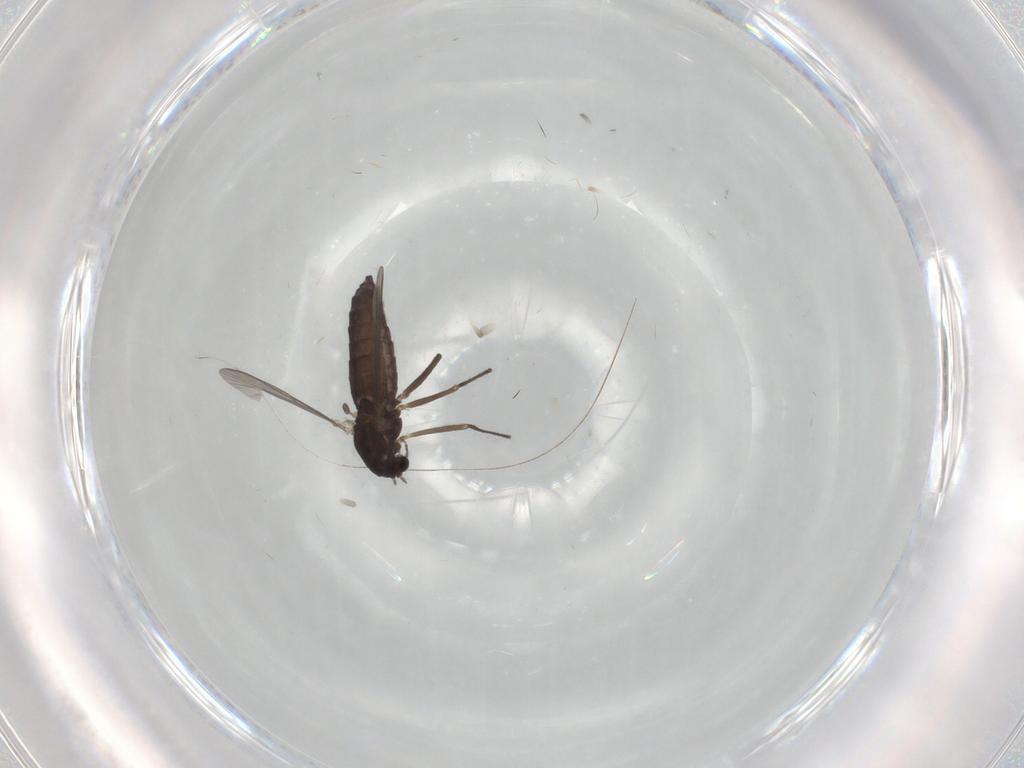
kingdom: Animalia
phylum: Arthropoda
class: Insecta
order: Diptera
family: Chironomidae
